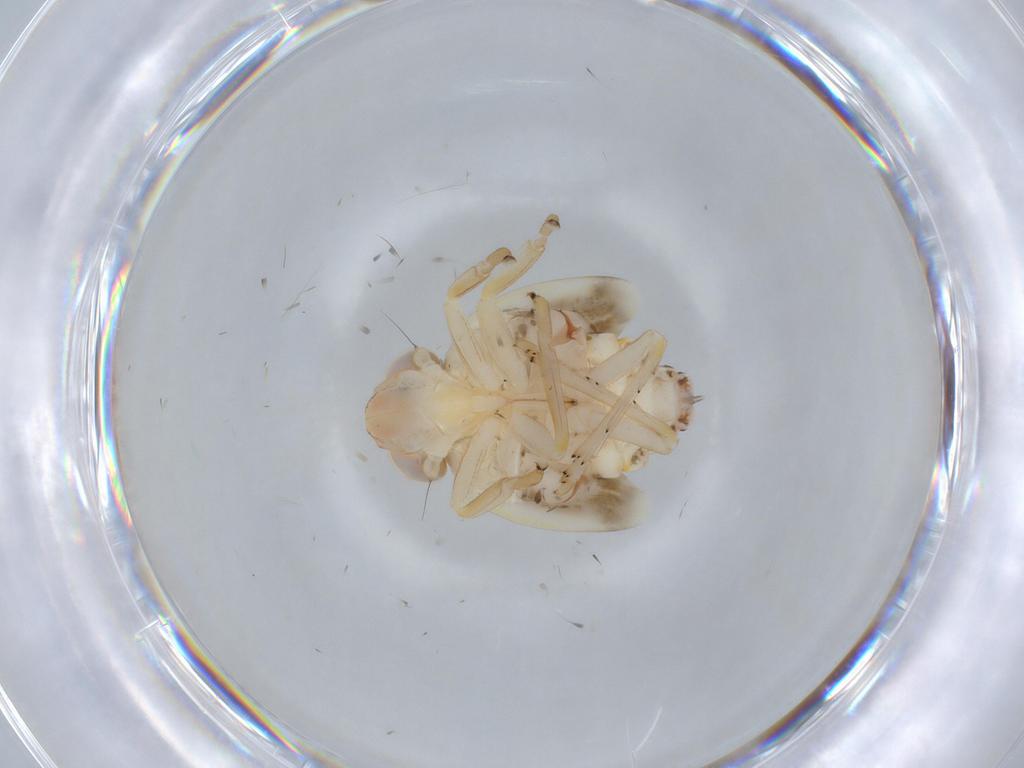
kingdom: Animalia
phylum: Arthropoda
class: Insecta
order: Hemiptera
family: Nogodinidae
